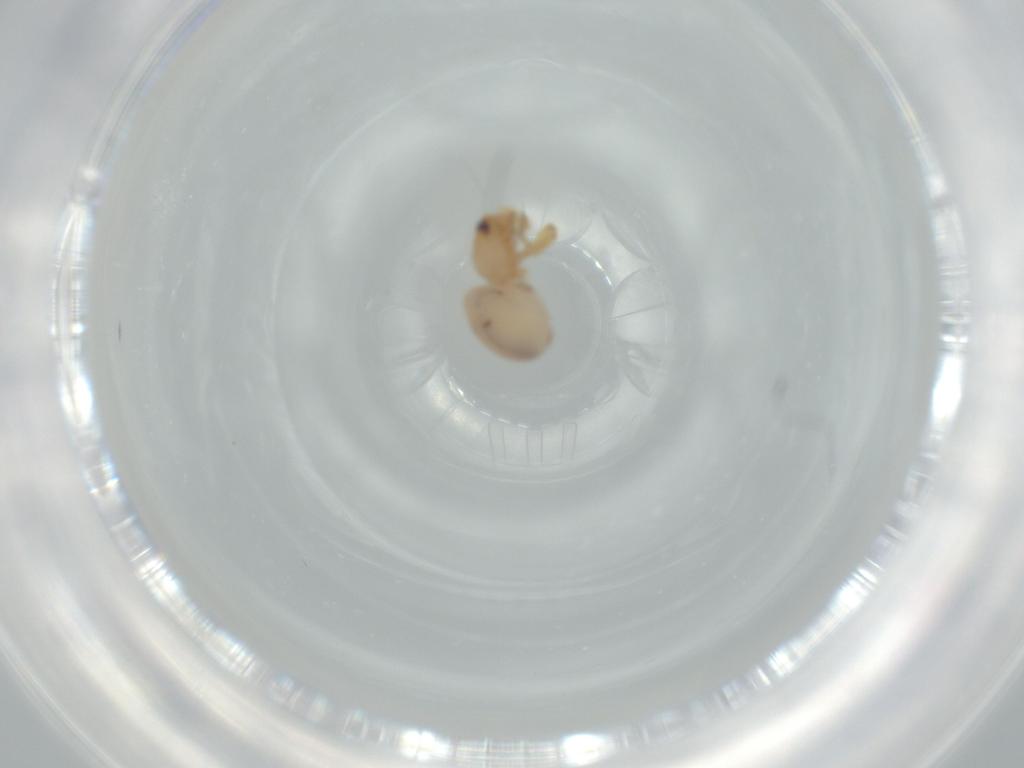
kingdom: Animalia
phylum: Arthropoda
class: Arachnida
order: Araneae
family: Oonopidae
